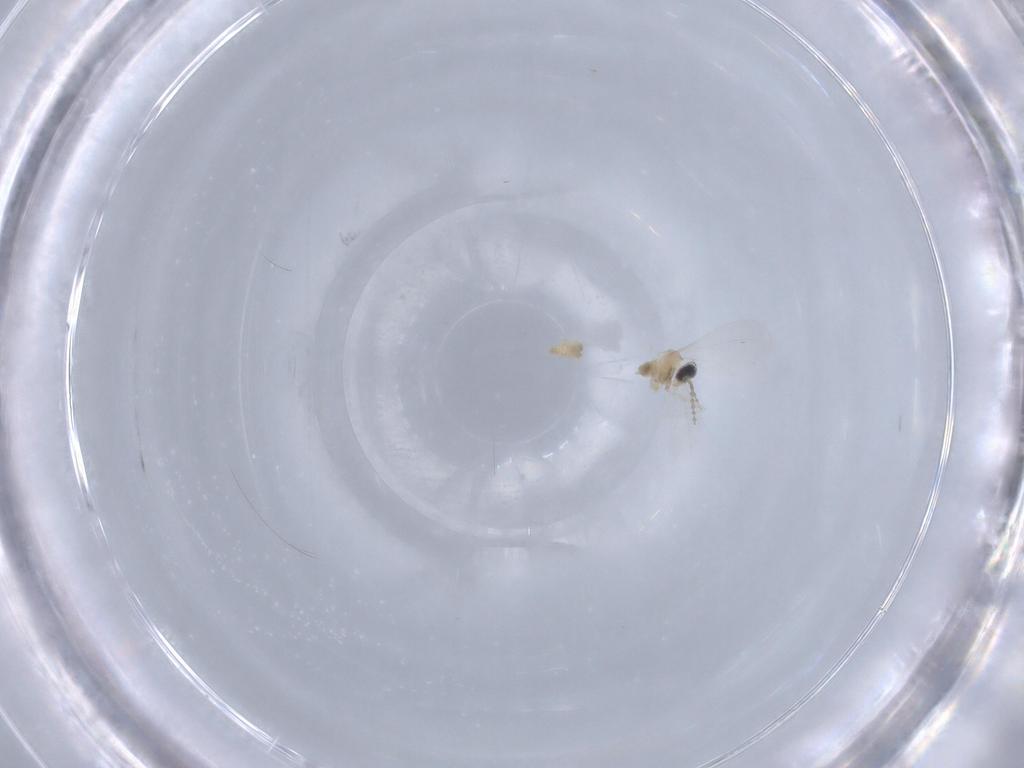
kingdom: Animalia
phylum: Arthropoda
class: Insecta
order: Diptera
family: Cecidomyiidae
